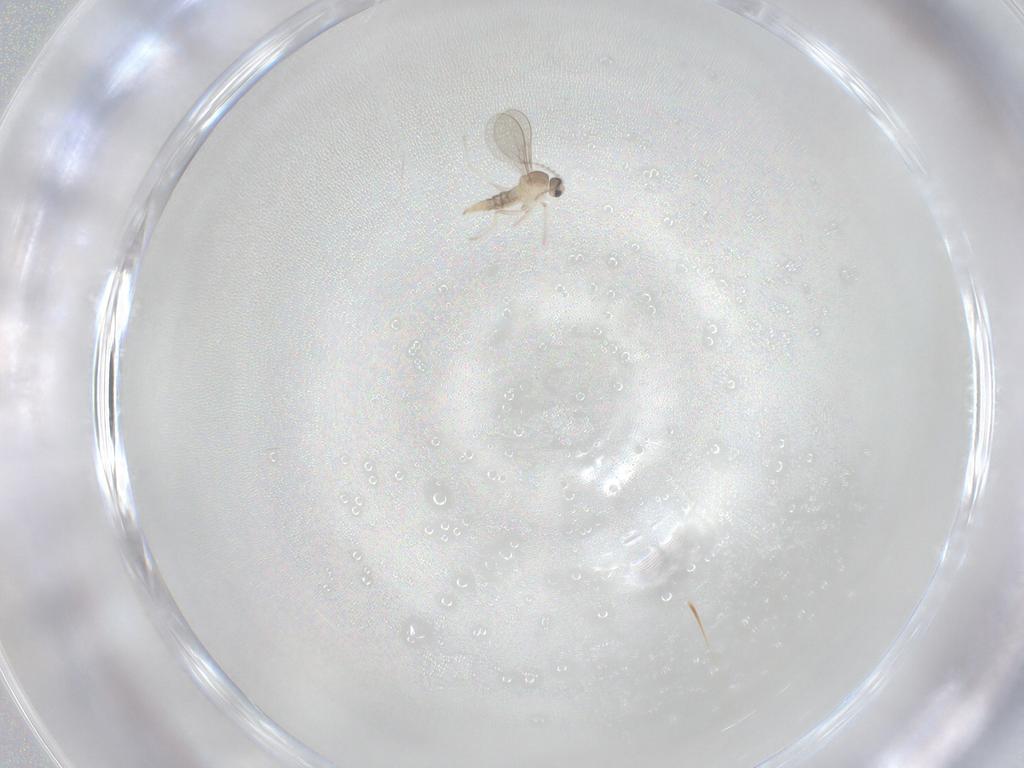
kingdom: Animalia
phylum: Arthropoda
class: Insecta
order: Diptera
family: Cecidomyiidae
